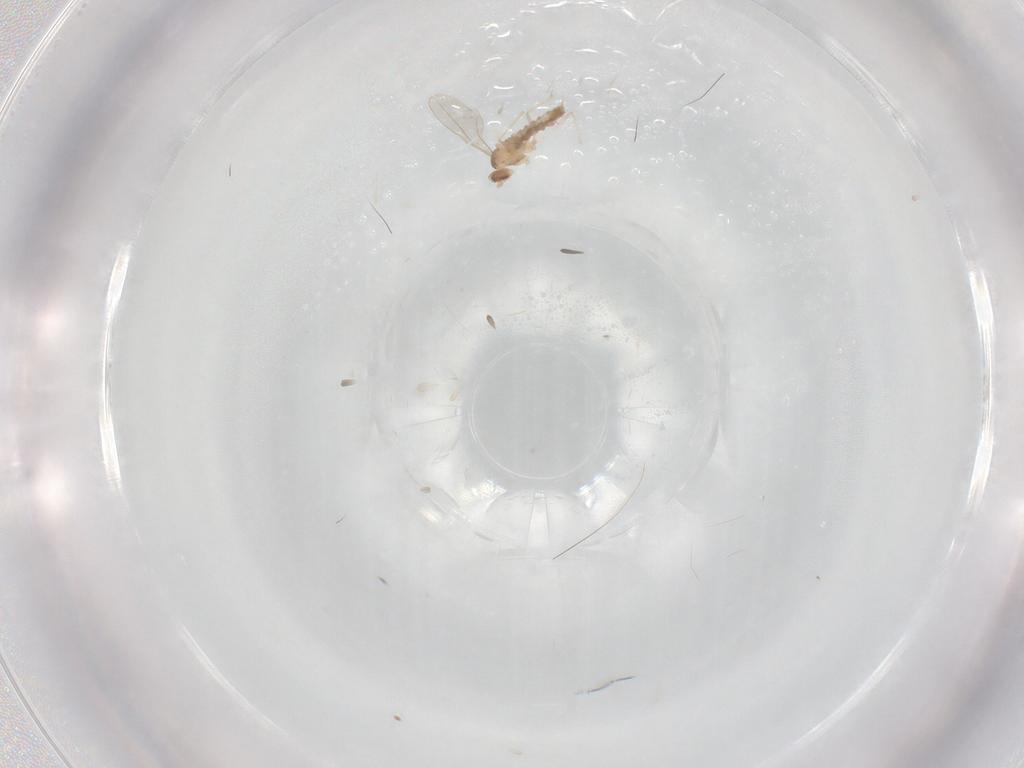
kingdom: Animalia
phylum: Arthropoda
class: Insecta
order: Diptera
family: Cecidomyiidae
